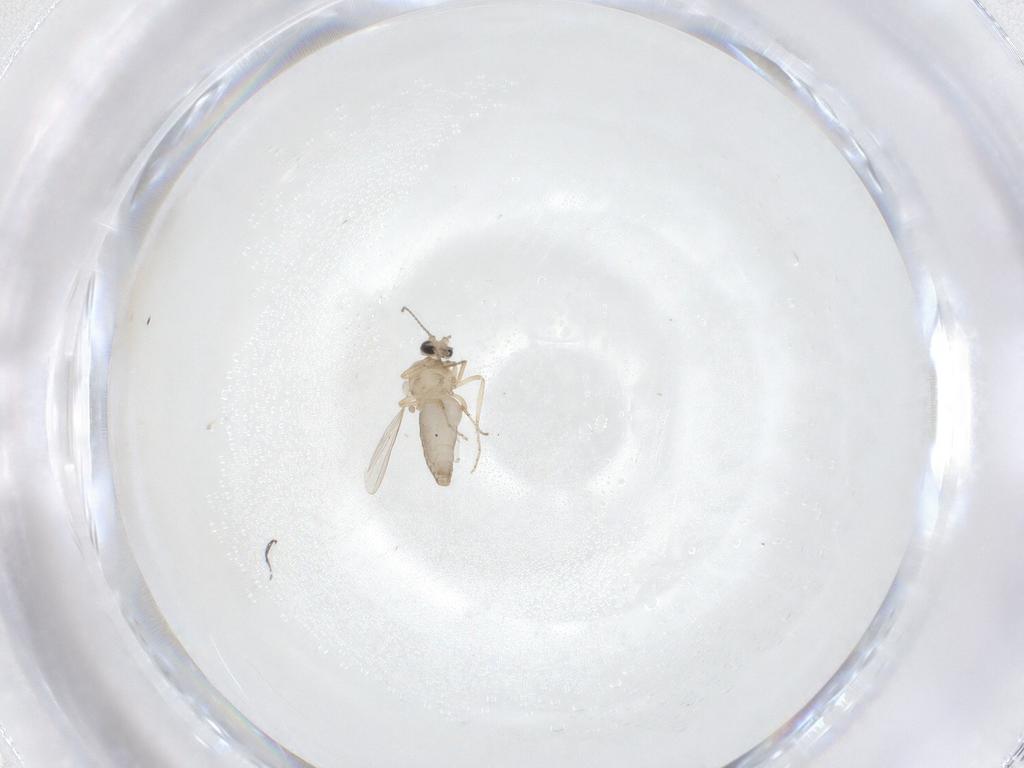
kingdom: Animalia
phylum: Arthropoda
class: Insecta
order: Diptera
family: Ceratopogonidae
